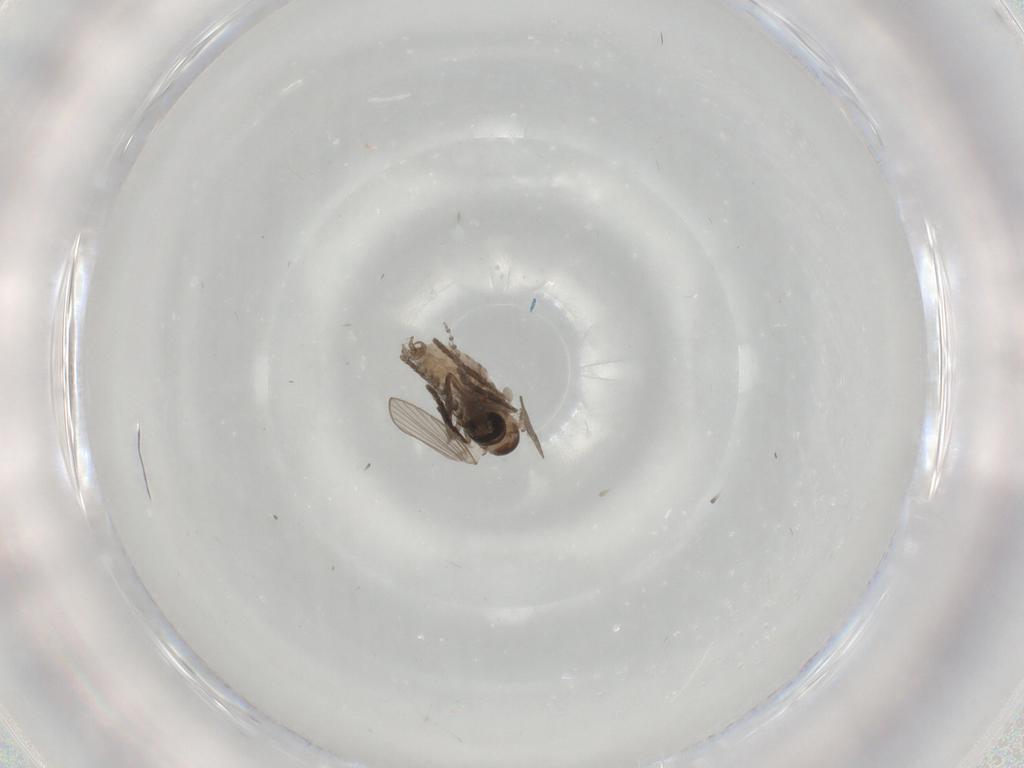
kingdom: Animalia
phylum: Arthropoda
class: Insecta
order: Diptera
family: Psychodidae
